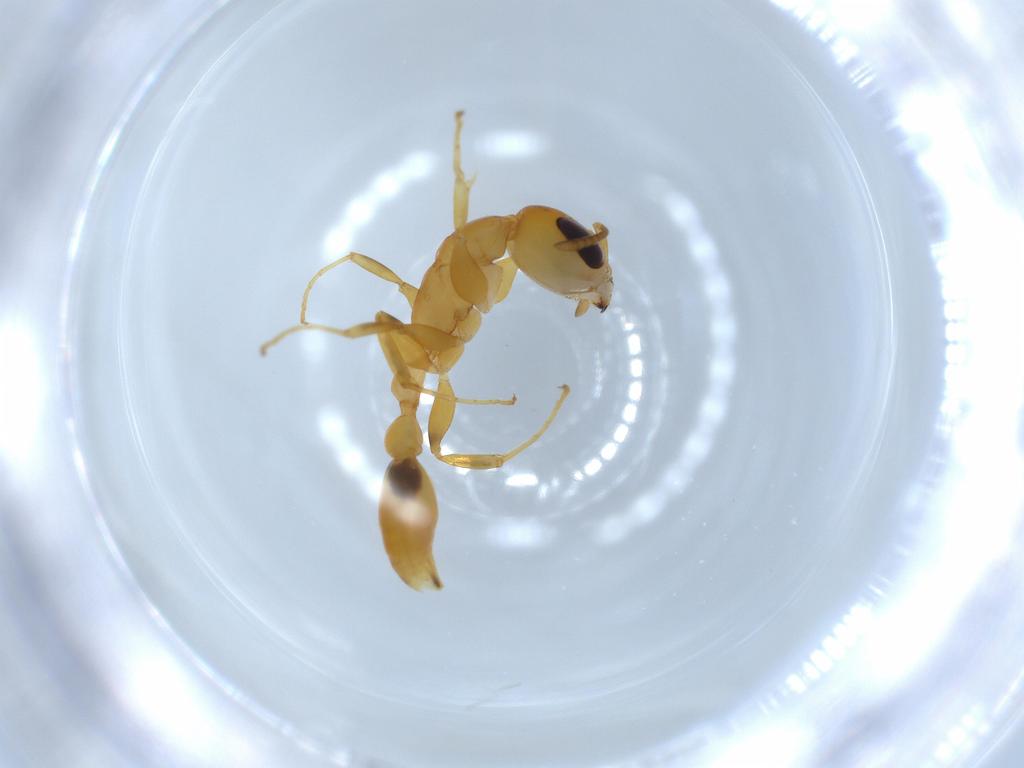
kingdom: Animalia
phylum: Arthropoda
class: Insecta
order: Hymenoptera
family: Formicidae
